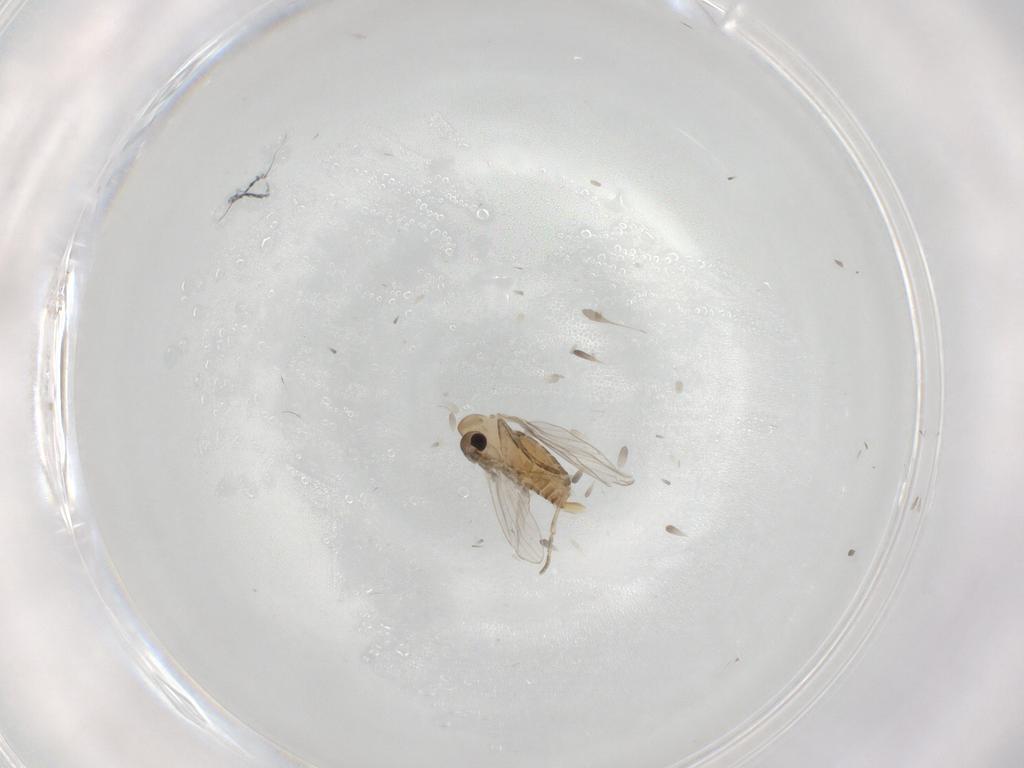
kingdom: Animalia
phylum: Arthropoda
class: Insecta
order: Diptera
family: Psychodidae
